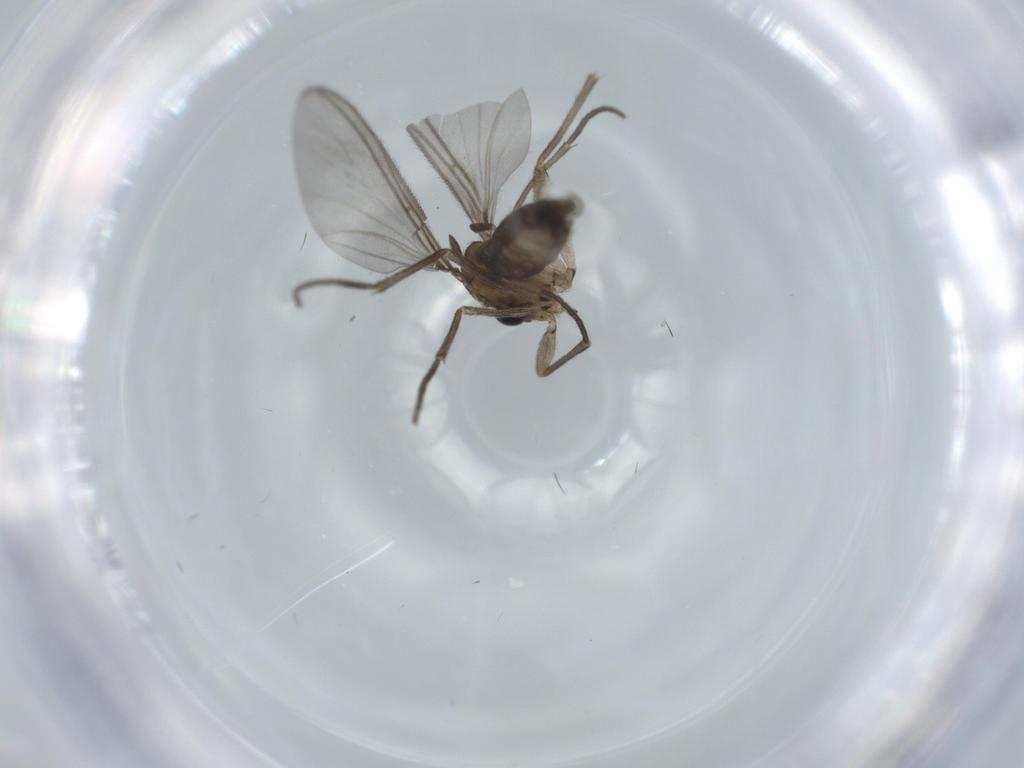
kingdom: Animalia
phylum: Arthropoda
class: Insecta
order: Diptera
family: Sciaridae
